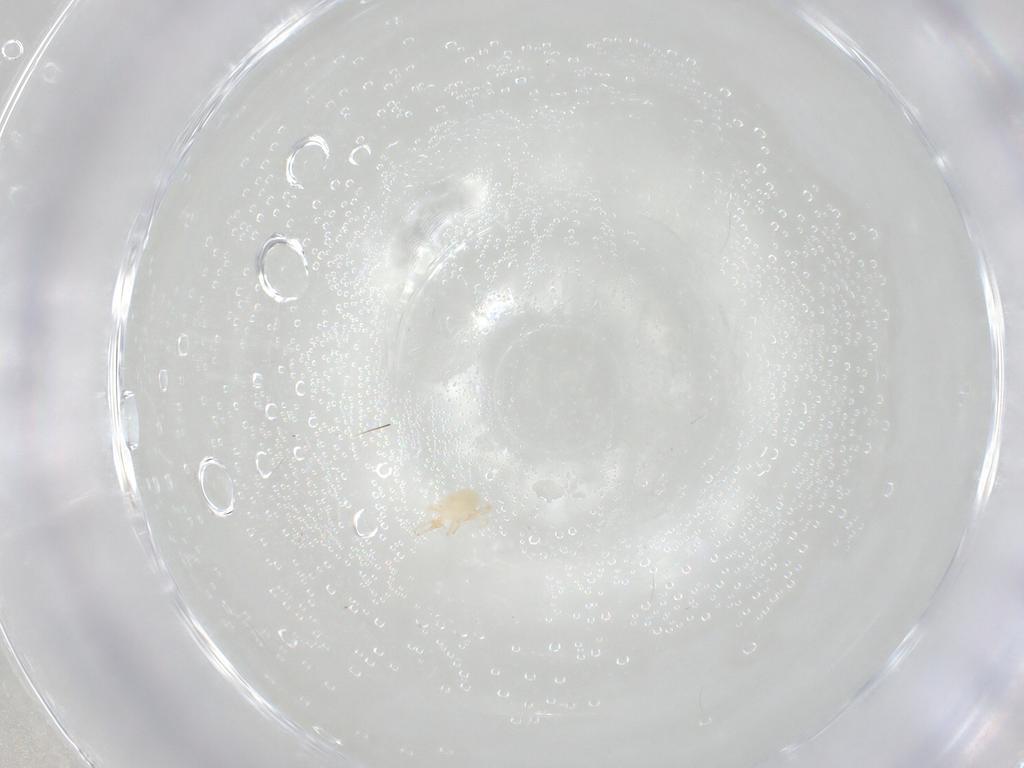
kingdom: Animalia
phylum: Arthropoda
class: Arachnida
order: Trombidiformes
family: Cunaxidae
